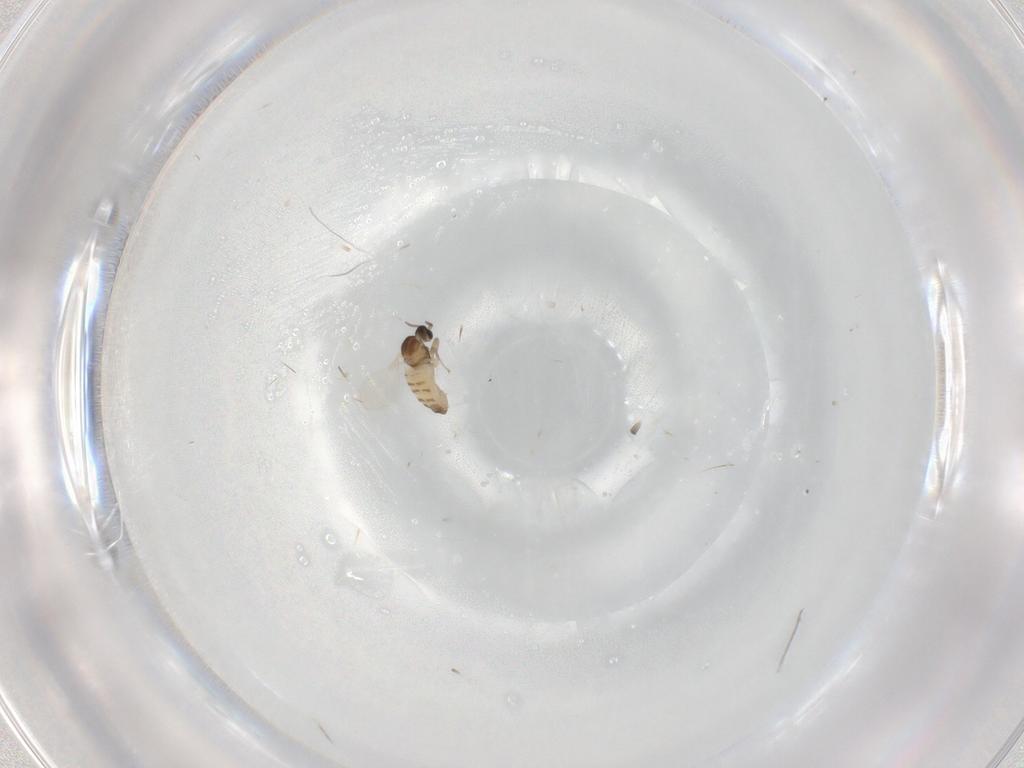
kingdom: Animalia
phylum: Arthropoda
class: Insecta
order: Diptera
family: Cecidomyiidae
